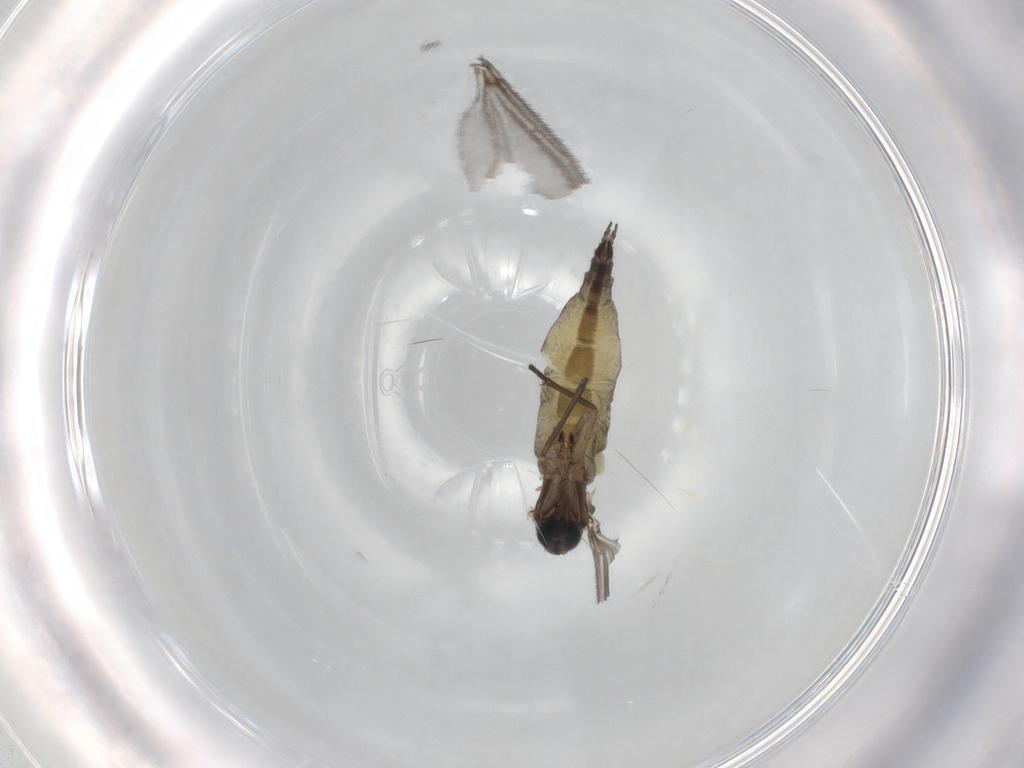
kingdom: Animalia
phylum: Arthropoda
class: Insecta
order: Diptera
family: Sciaridae
